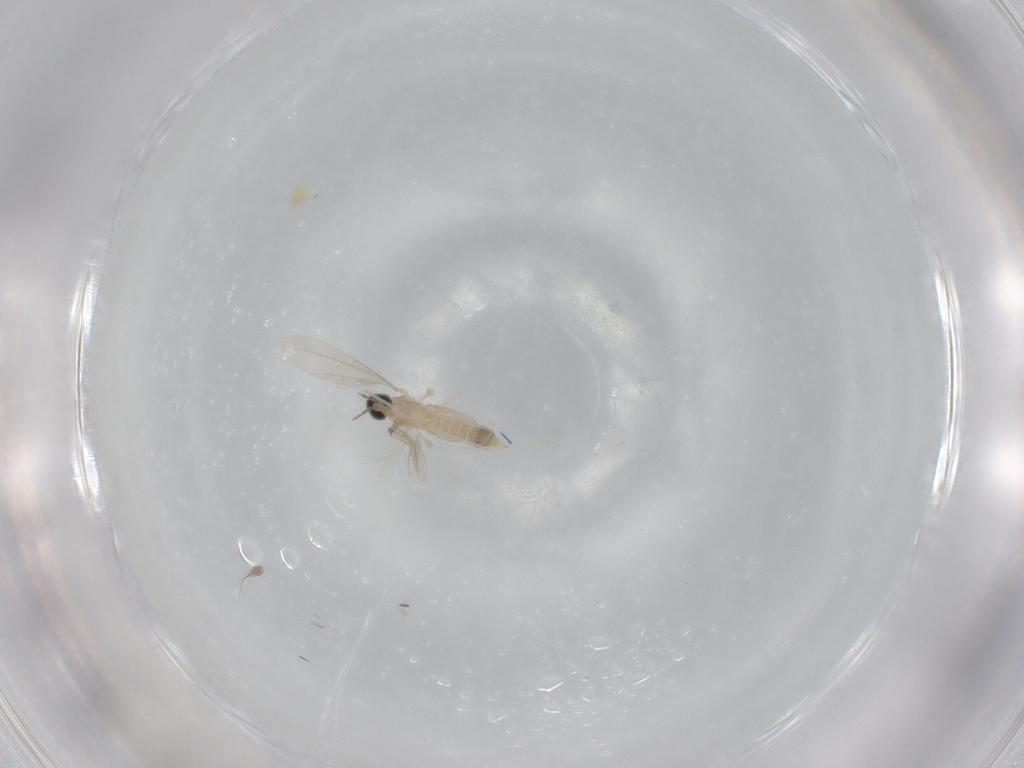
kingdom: Animalia
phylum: Arthropoda
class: Insecta
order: Diptera
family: Cecidomyiidae
